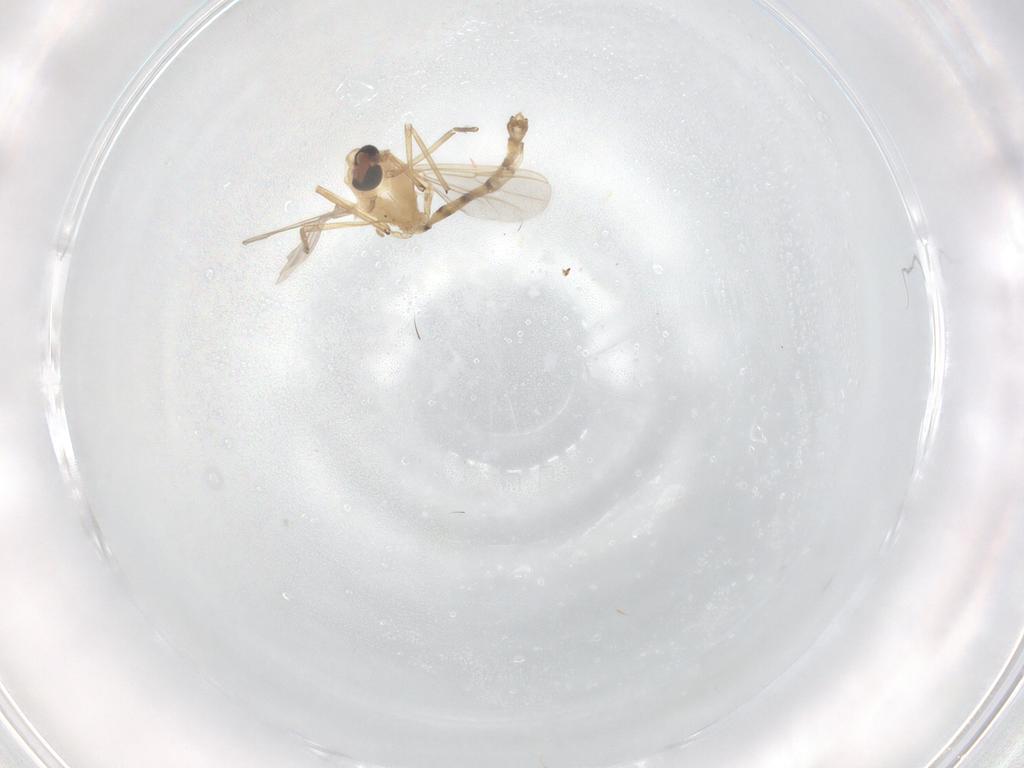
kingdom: Animalia
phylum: Arthropoda
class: Insecta
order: Diptera
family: Chironomidae
